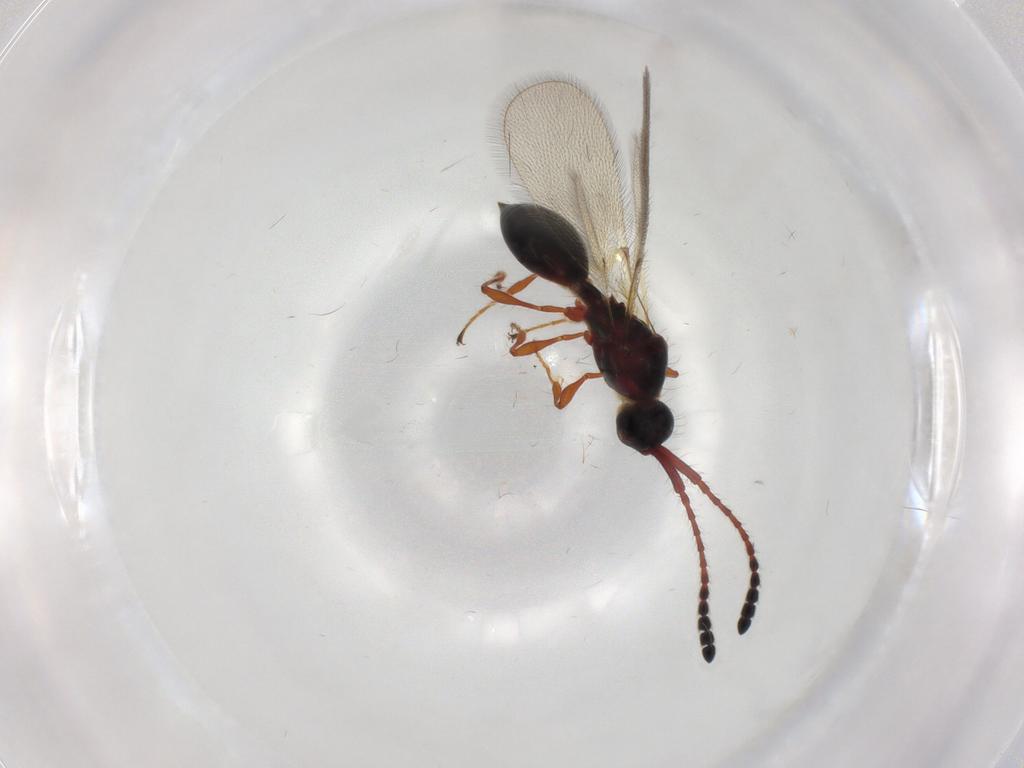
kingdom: Animalia
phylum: Arthropoda
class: Insecta
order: Hymenoptera
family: Diapriidae
